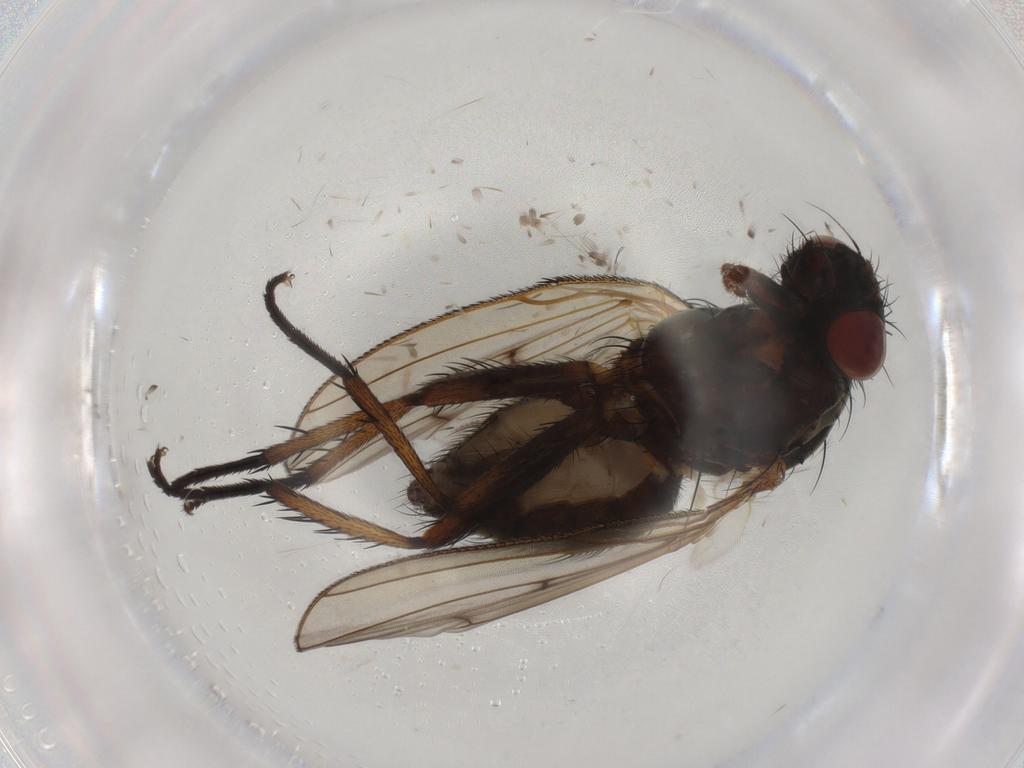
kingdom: Animalia
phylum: Arthropoda
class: Insecta
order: Diptera
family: Anthomyiidae
